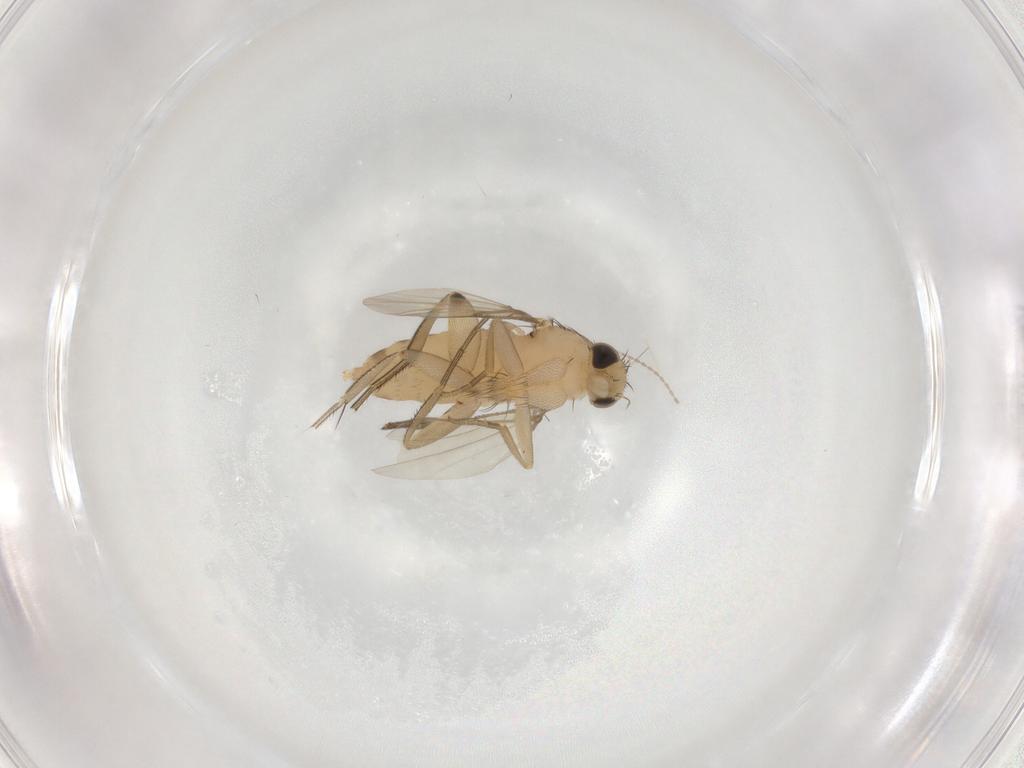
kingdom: Animalia
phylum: Arthropoda
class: Insecta
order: Diptera
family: Phoridae
